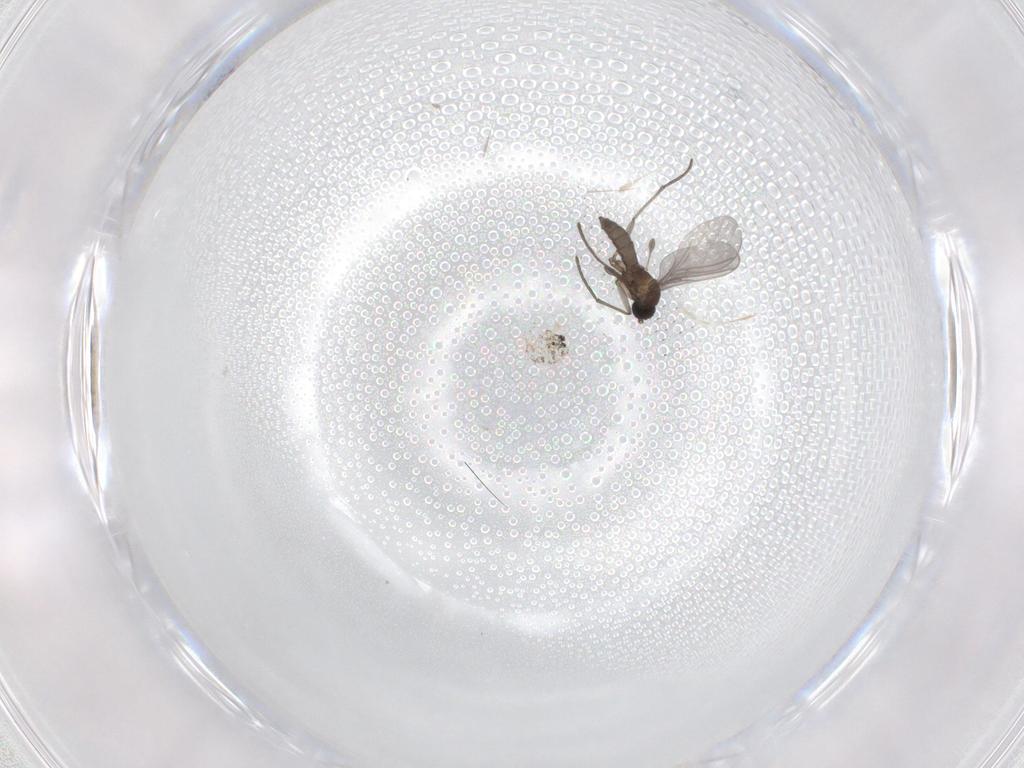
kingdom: Animalia
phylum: Arthropoda
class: Insecta
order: Diptera
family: Sciaridae
